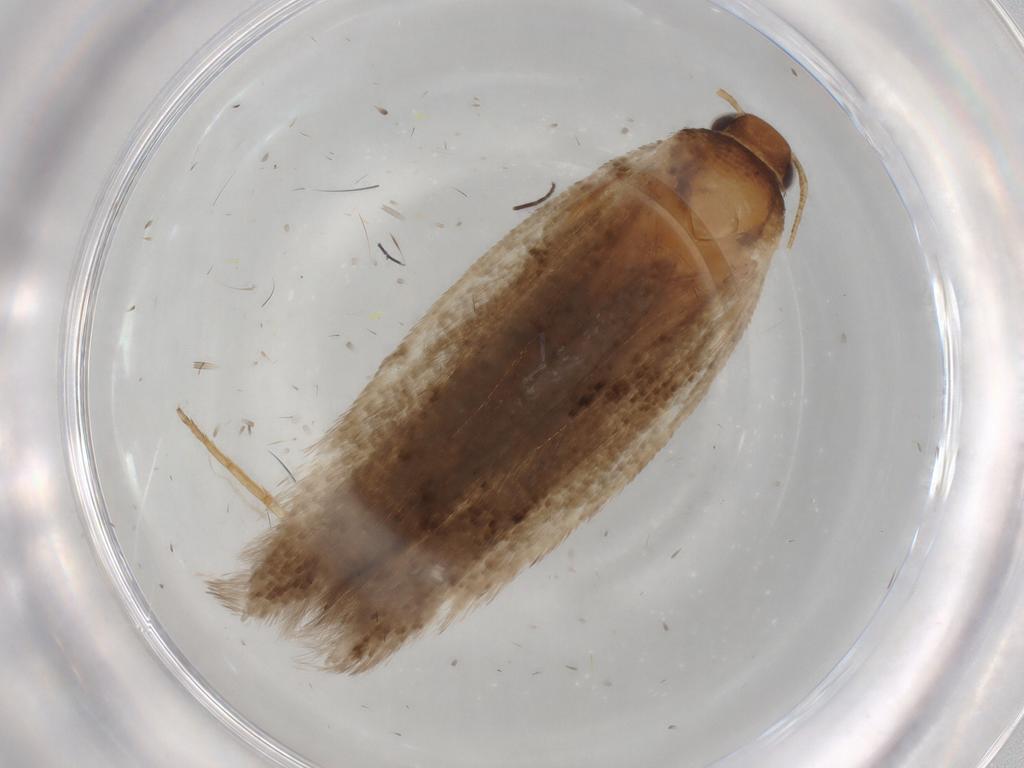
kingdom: Animalia
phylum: Arthropoda
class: Insecta
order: Lepidoptera
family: Gelechiidae
